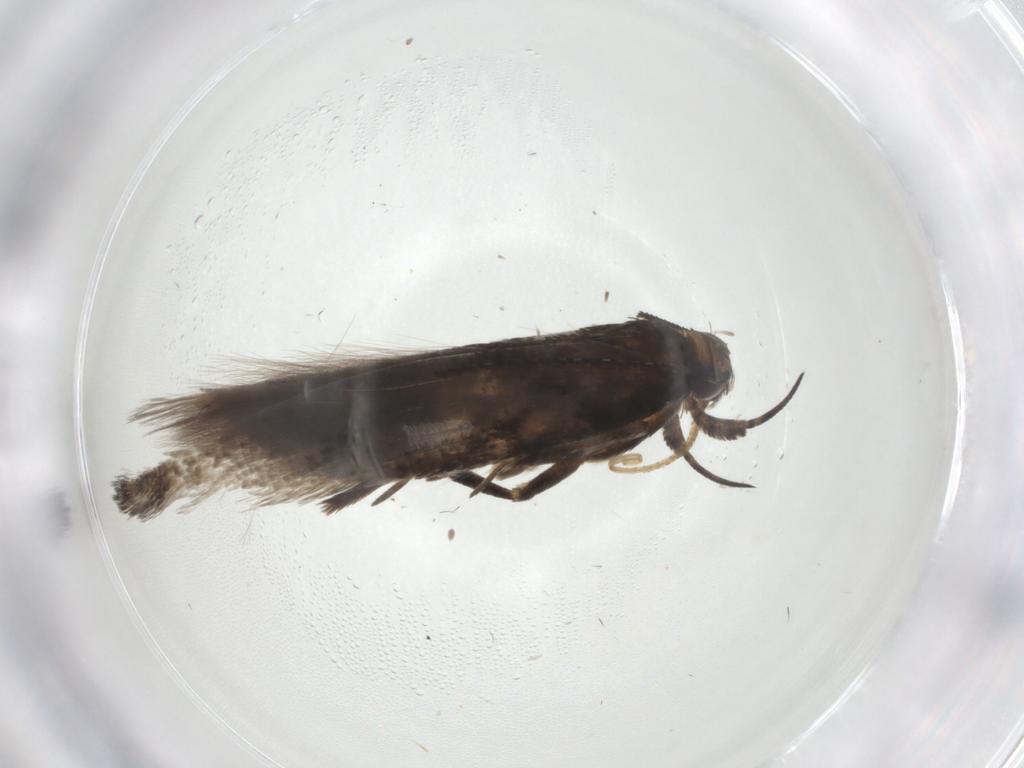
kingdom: Animalia
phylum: Arthropoda
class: Insecta
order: Lepidoptera
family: Gelechiidae
